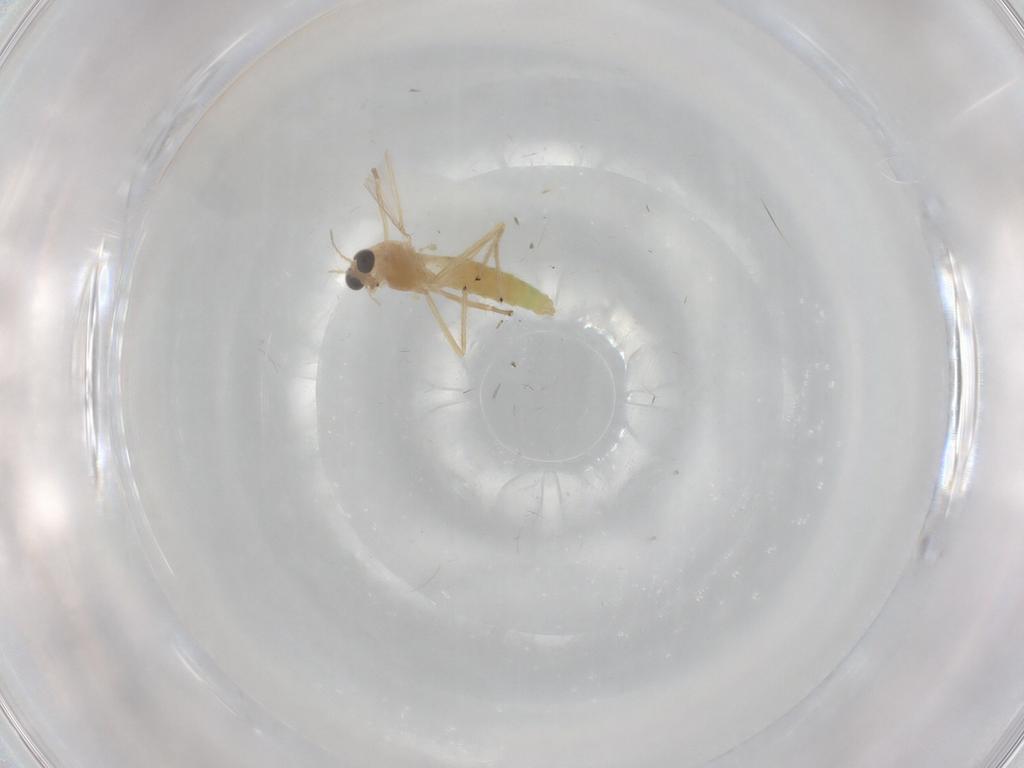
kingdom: Animalia
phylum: Arthropoda
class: Insecta
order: Diptera
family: Chironomidae
